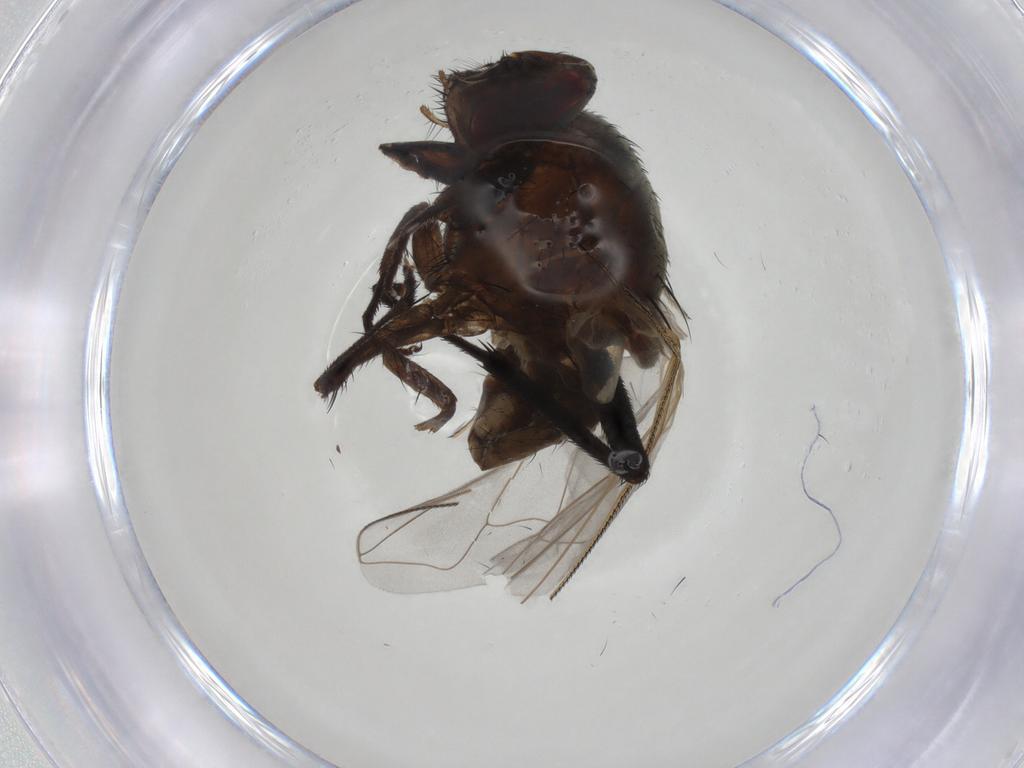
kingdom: Animalia
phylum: Arthropoda
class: Insecta
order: Diptera
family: Muscidae
